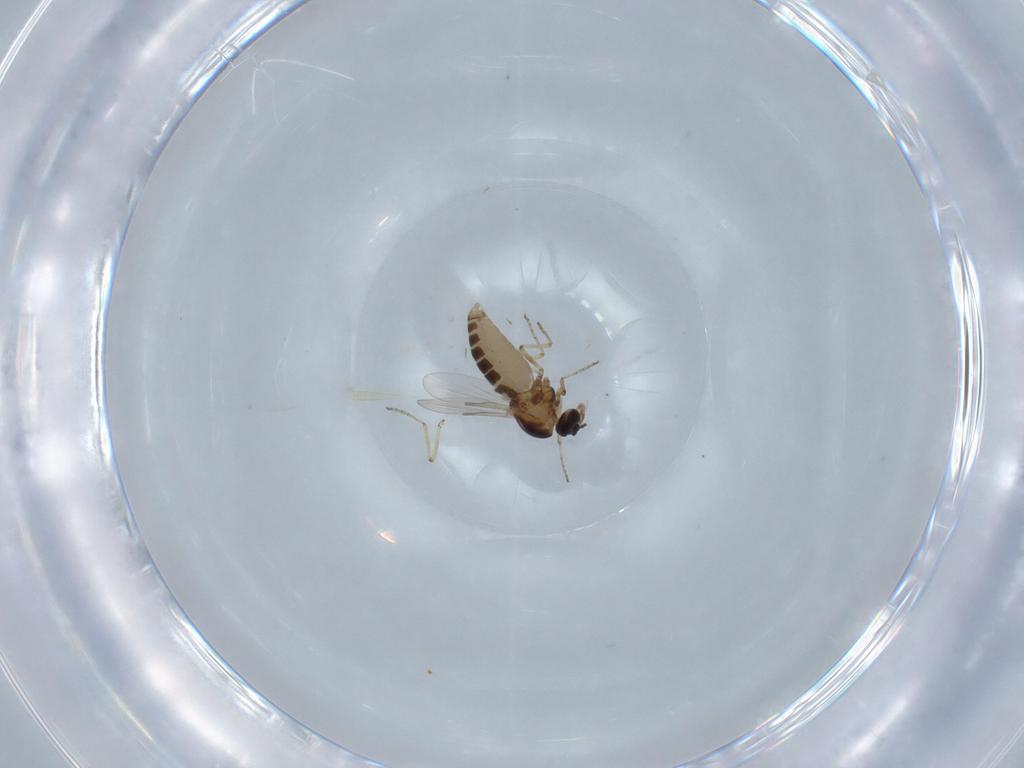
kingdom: Animalia
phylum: Arthropoda
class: Insecta
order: Diptera
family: Ceratopogonidae
